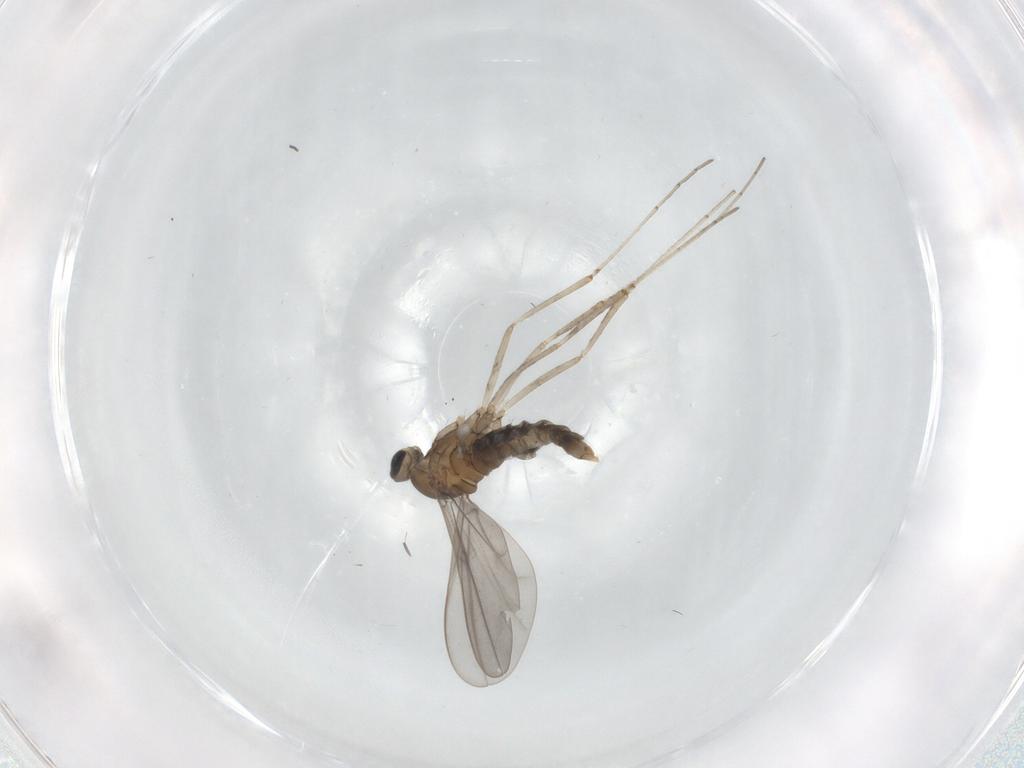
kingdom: Animalia
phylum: Arthropoda
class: Insecta
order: Diptera
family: Cecidomyiidae
